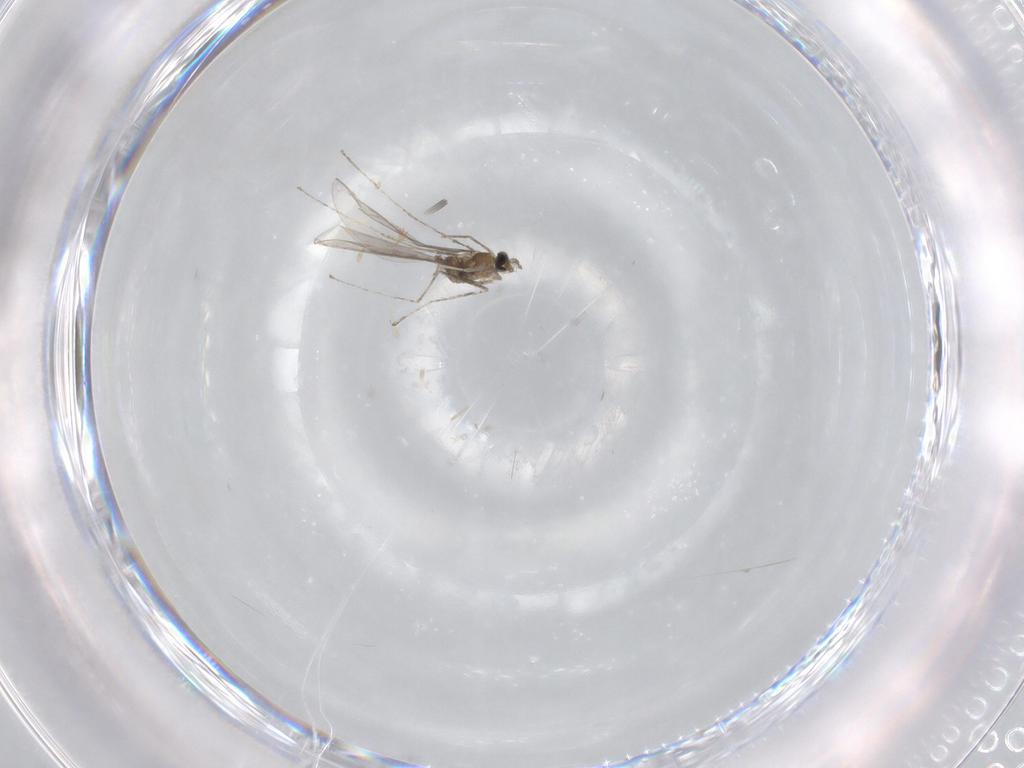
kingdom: Animalia
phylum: Arthropoda
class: Insecta
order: Diptera
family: Cecidomyiidae
